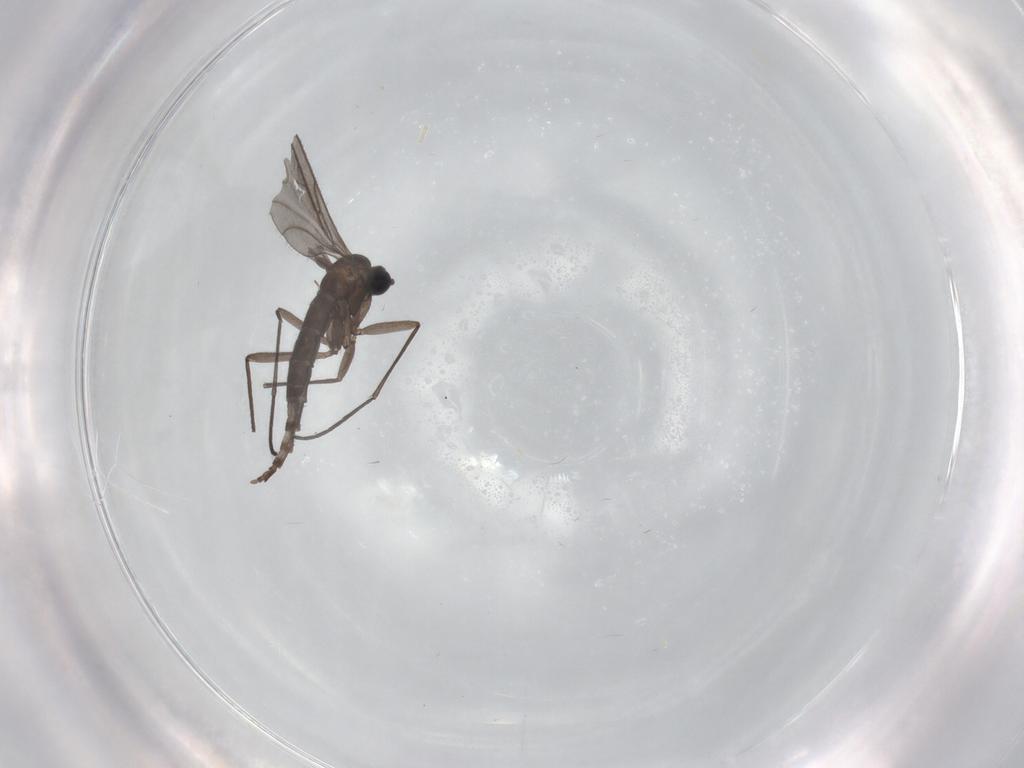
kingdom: Animalia
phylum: Arthropoda
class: Insecta
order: Diptera
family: Sciaridae
